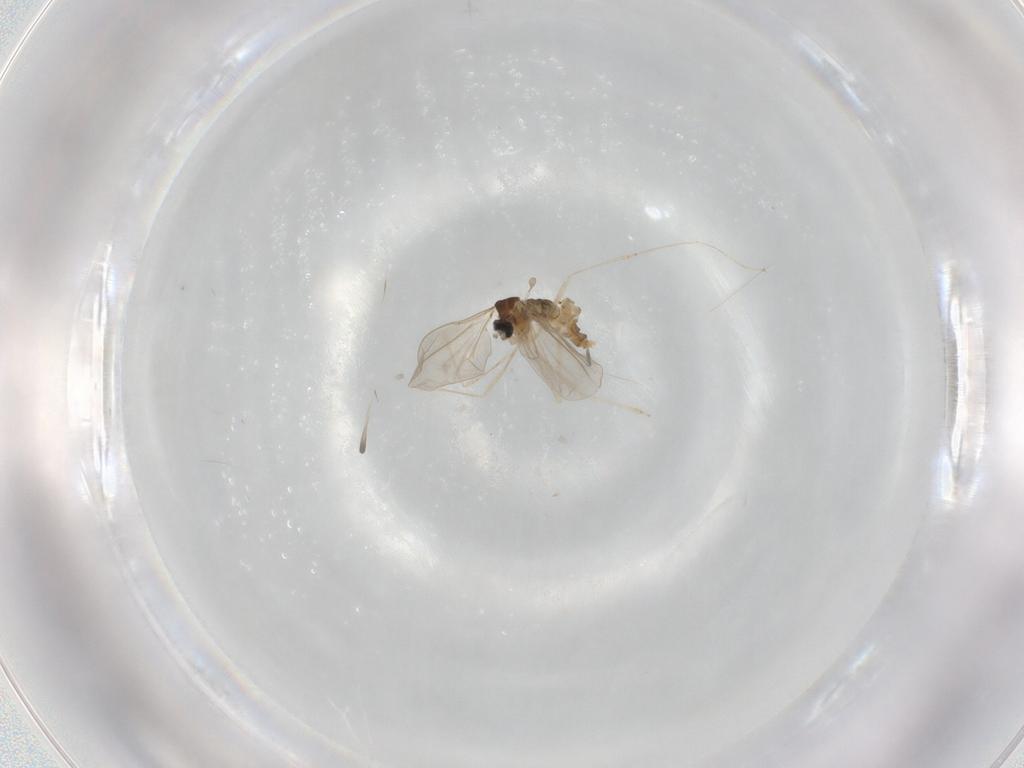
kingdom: Animalia
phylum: Arthropoda
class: Insecta
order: Diptera
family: Cecidomyiidae
